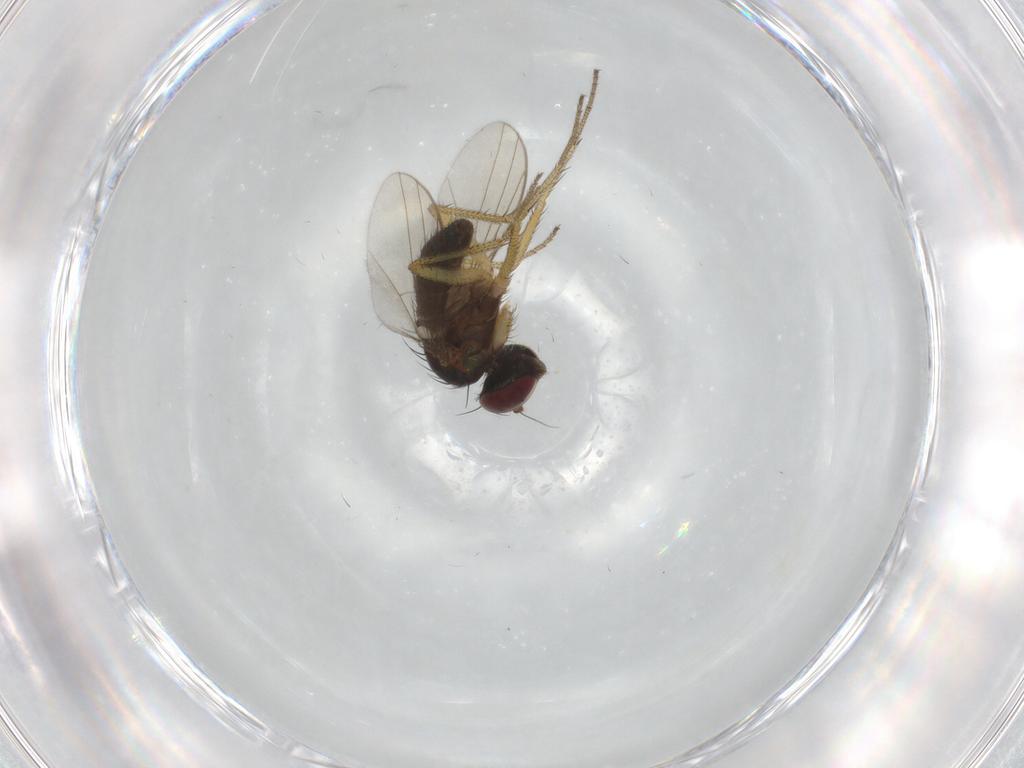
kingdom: Animalia
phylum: Arthropoda
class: Insecta
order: Diptera
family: Dolichopodidae
